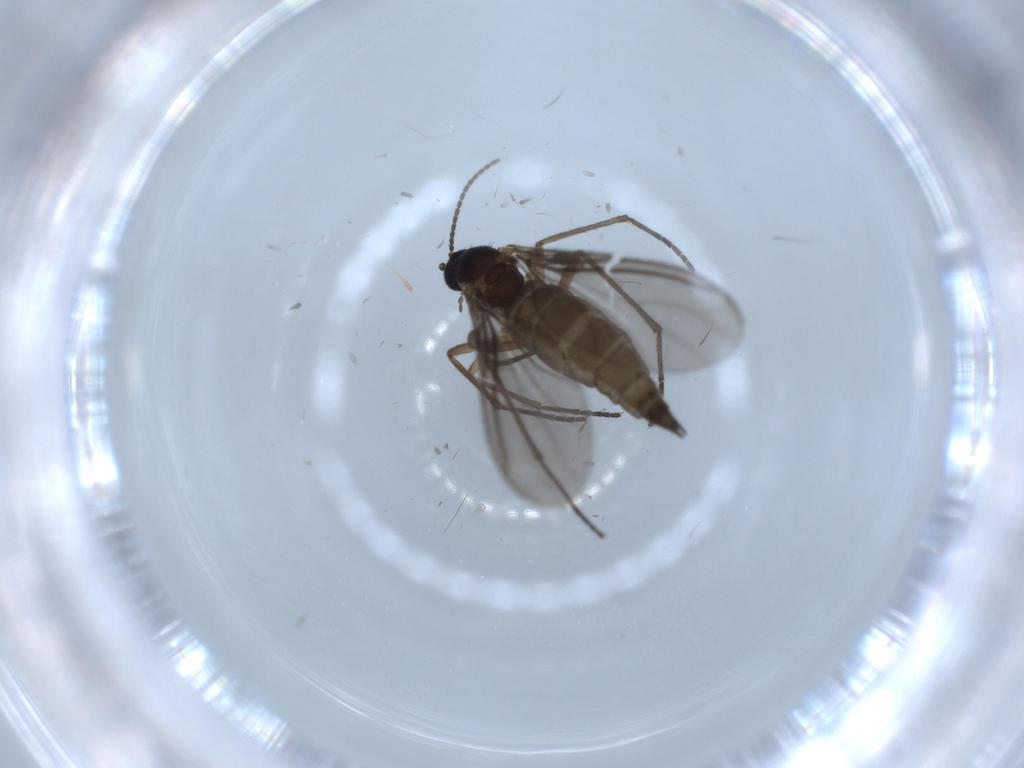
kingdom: Animalia
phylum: Arthropoda
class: Insecta
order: Diptera
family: Sciaridae
